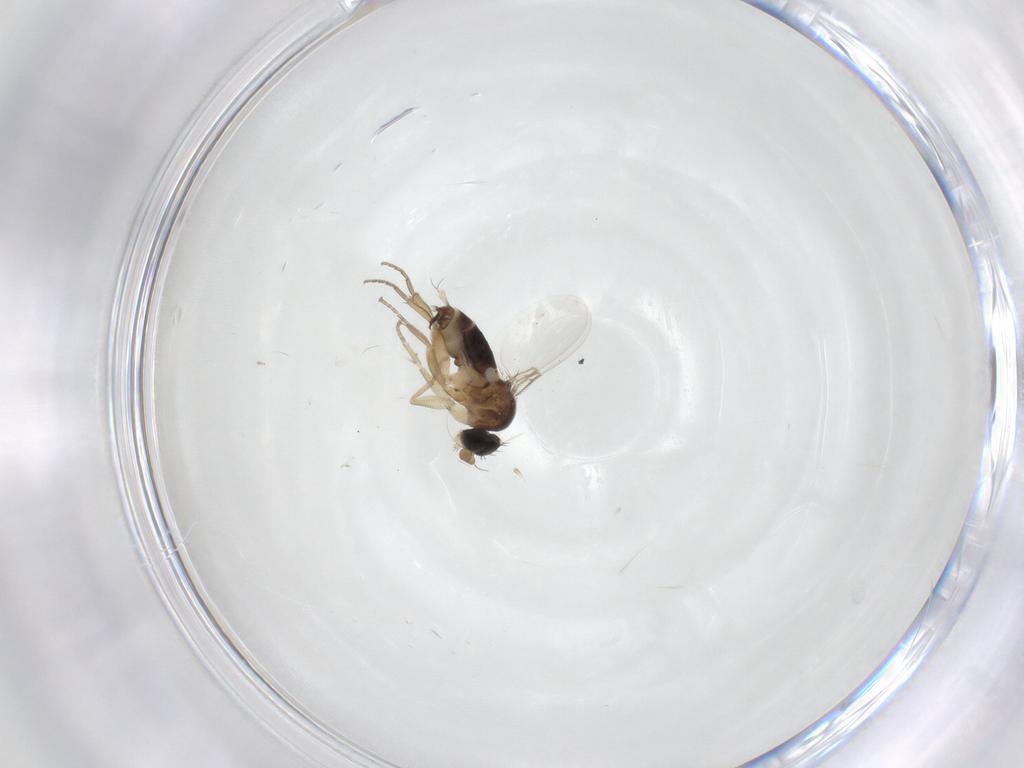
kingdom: Animalia
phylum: Arthropoda
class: Insecta
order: Diptera
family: Phoridae
